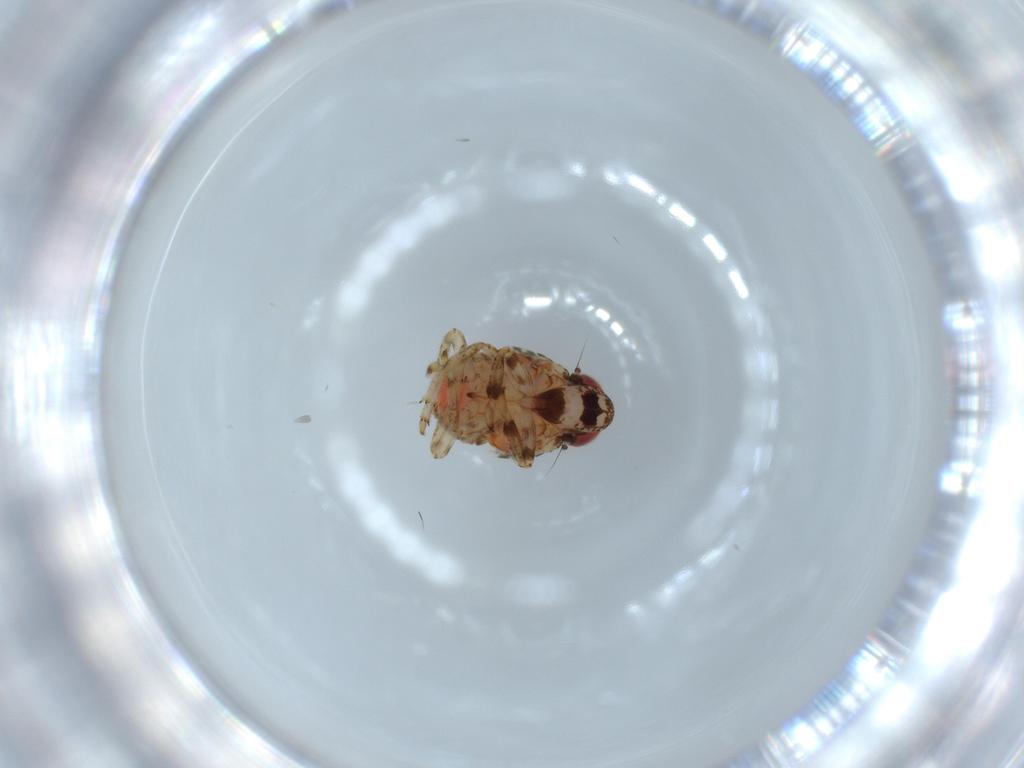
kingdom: Animalia
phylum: Arthropoda
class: Insecta
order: Hemiptera
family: Issidae
